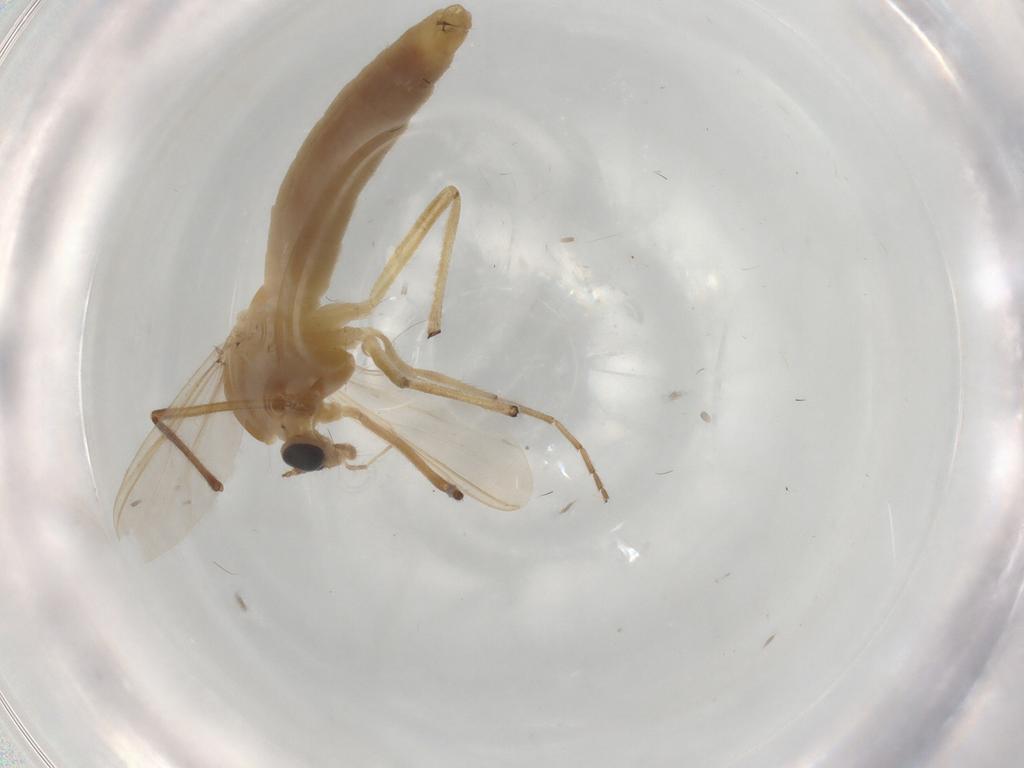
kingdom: Animalia
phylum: Arthropoda
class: Insecta
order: Diptera
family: Chironomidae
